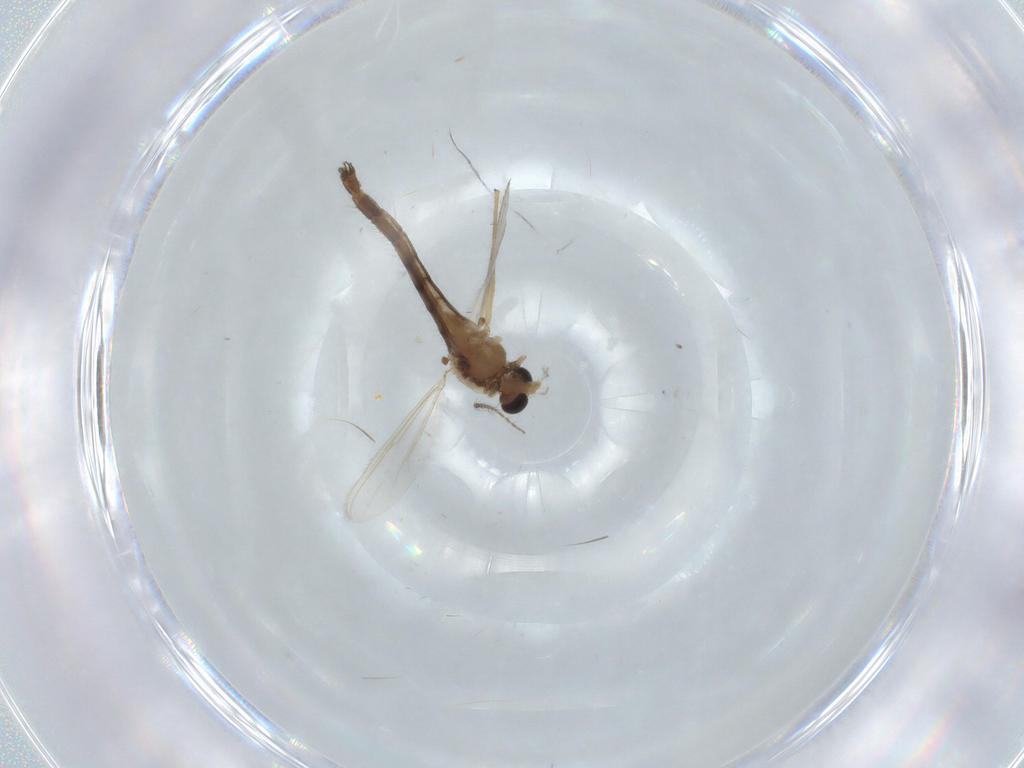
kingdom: Animalia
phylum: Arthropoda
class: Insecta
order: Diptera
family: Chironomidae
